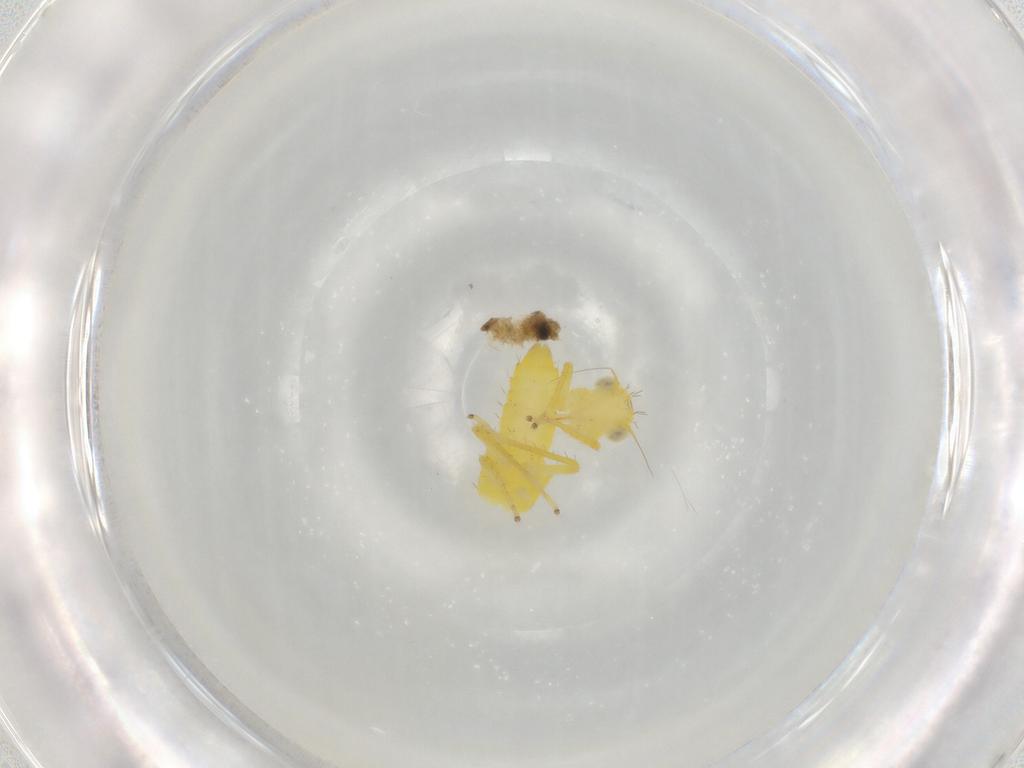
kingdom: Animalia
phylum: Arthropoda
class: Insecta
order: Hemiptera
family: Cicadellidae
